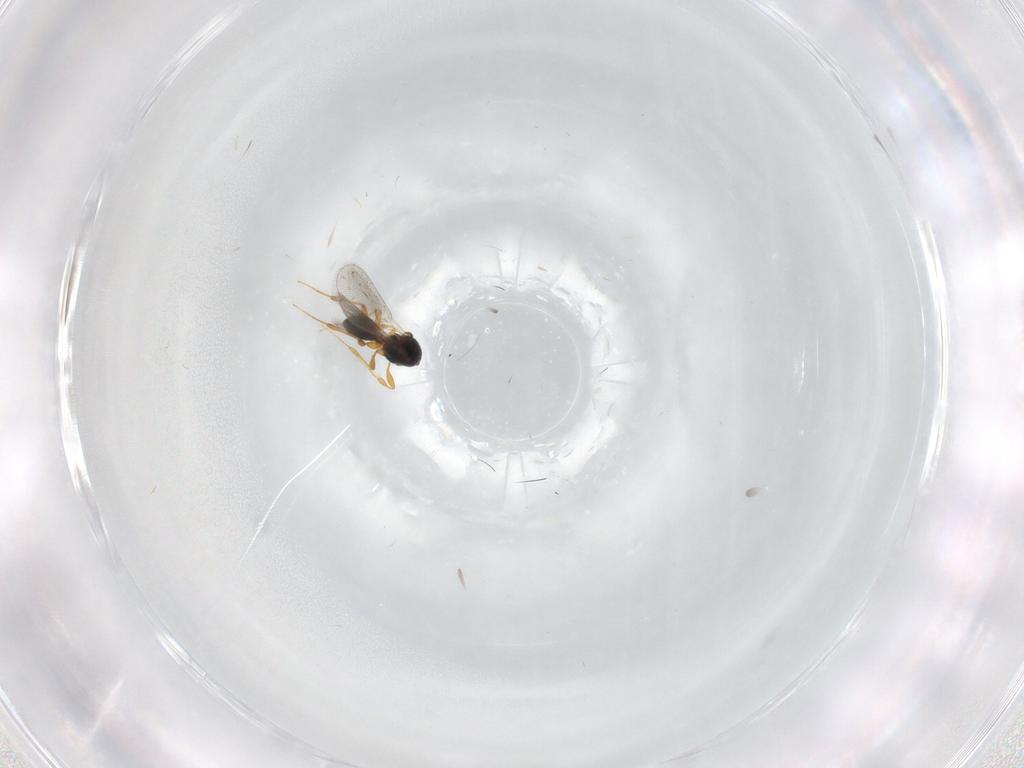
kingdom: Animalia
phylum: Arthropoda
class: Insecta
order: Hymenoptera
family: Platygastridae
